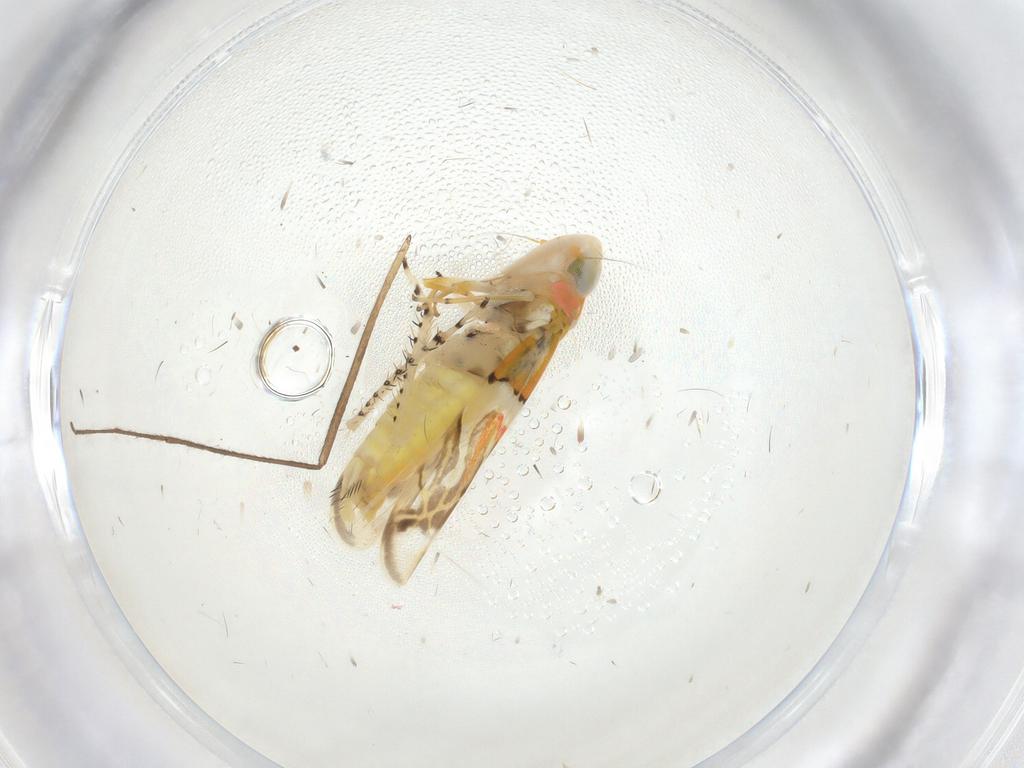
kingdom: Animalia
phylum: Arthropoda
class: Insecta
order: Hemiptera
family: Cicadellidae
